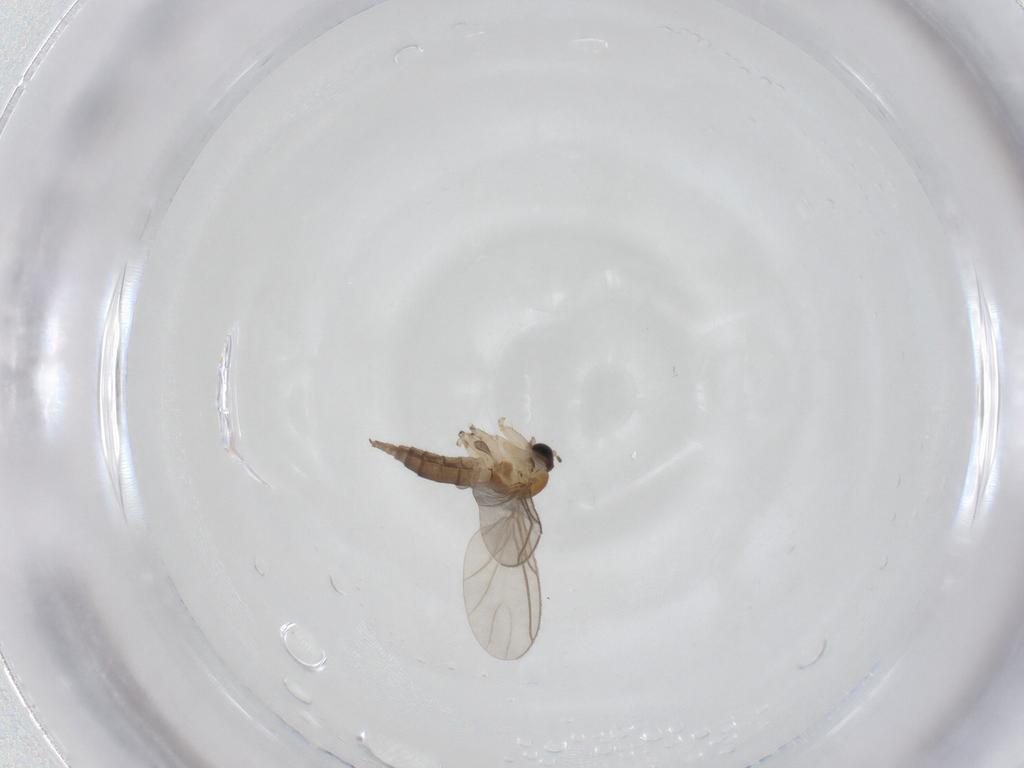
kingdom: Animalia
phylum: Arthropoda
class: Insecta
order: Diptera
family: Sciaridae
